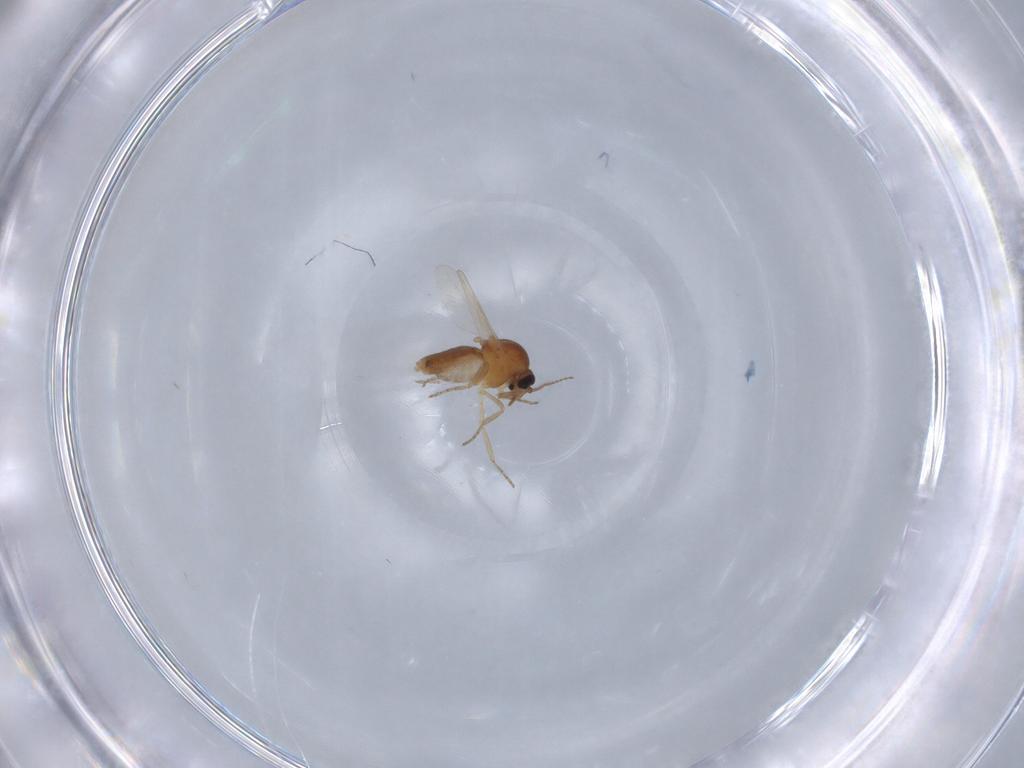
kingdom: Animalia
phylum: Arthropoda
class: Insecta
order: Diptera
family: Ceratopogonidae
